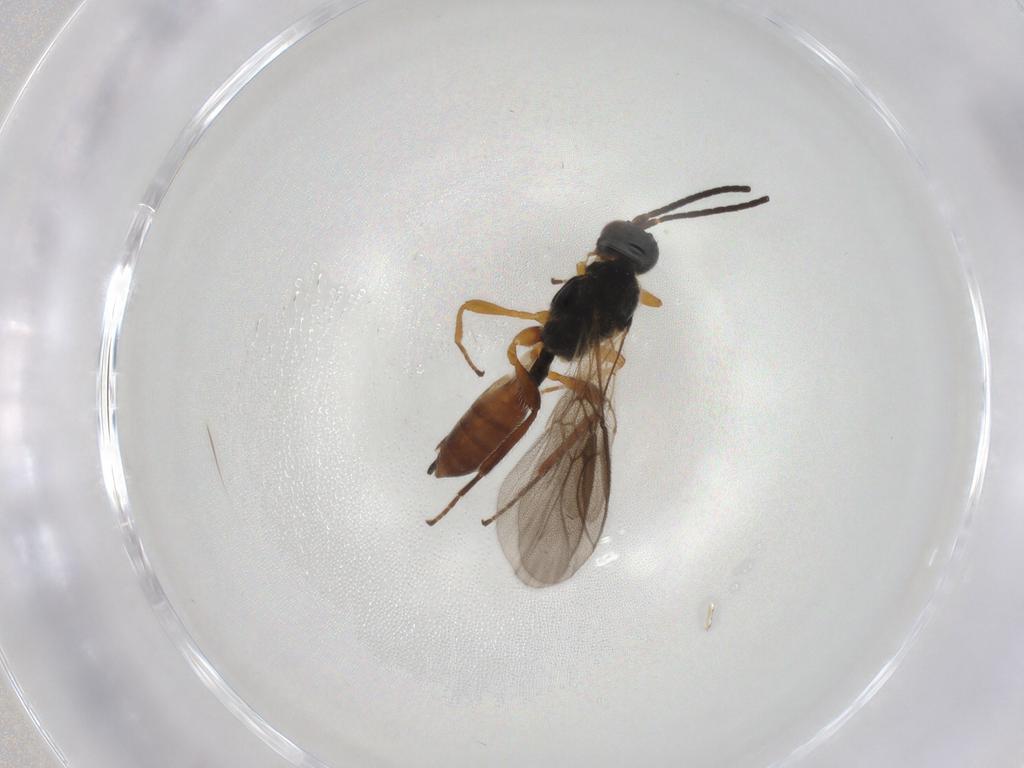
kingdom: Animalia
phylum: Arthropoda
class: Insecta
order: Hymenoptera
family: Braconidae
